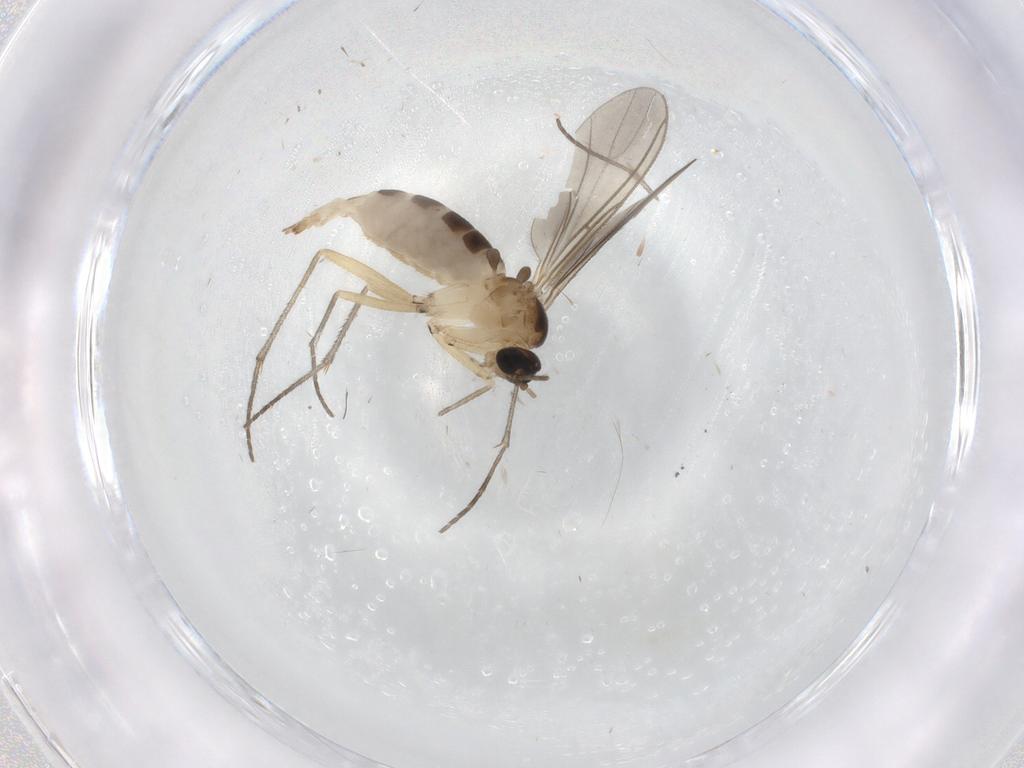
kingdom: Animalia
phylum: Arthropoda
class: Insecta
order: Diptera
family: Sciaridae
